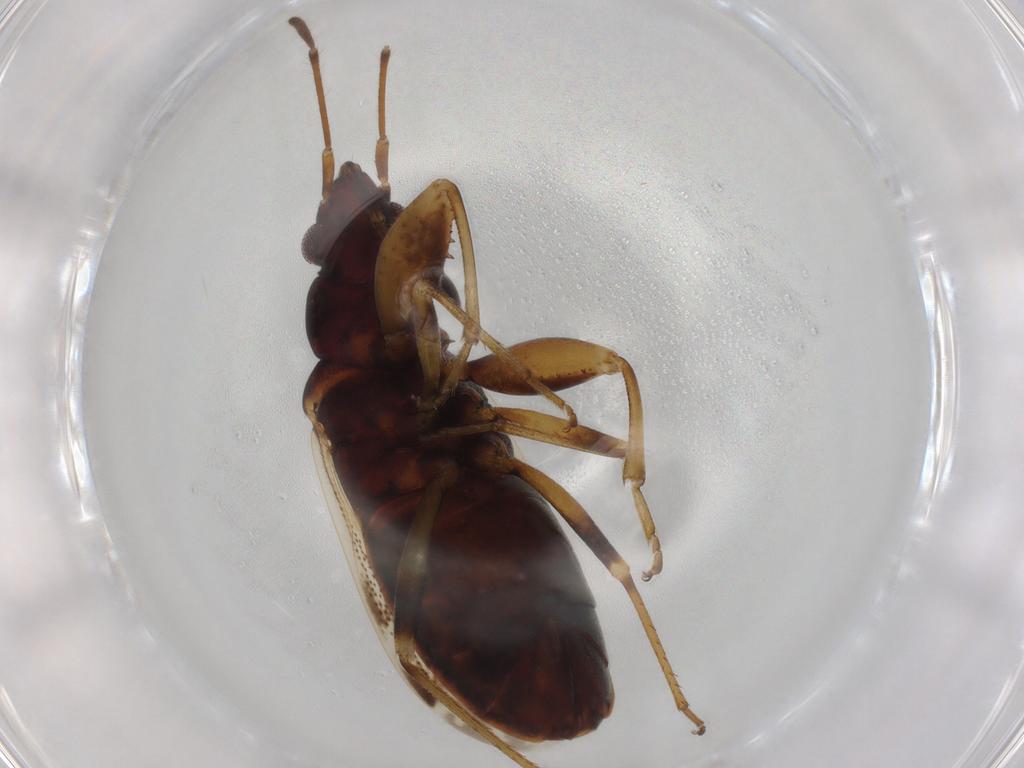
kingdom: Animalia
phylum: Arthropoda
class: Insecta
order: Hemiptera
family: Rhyparochromidae
